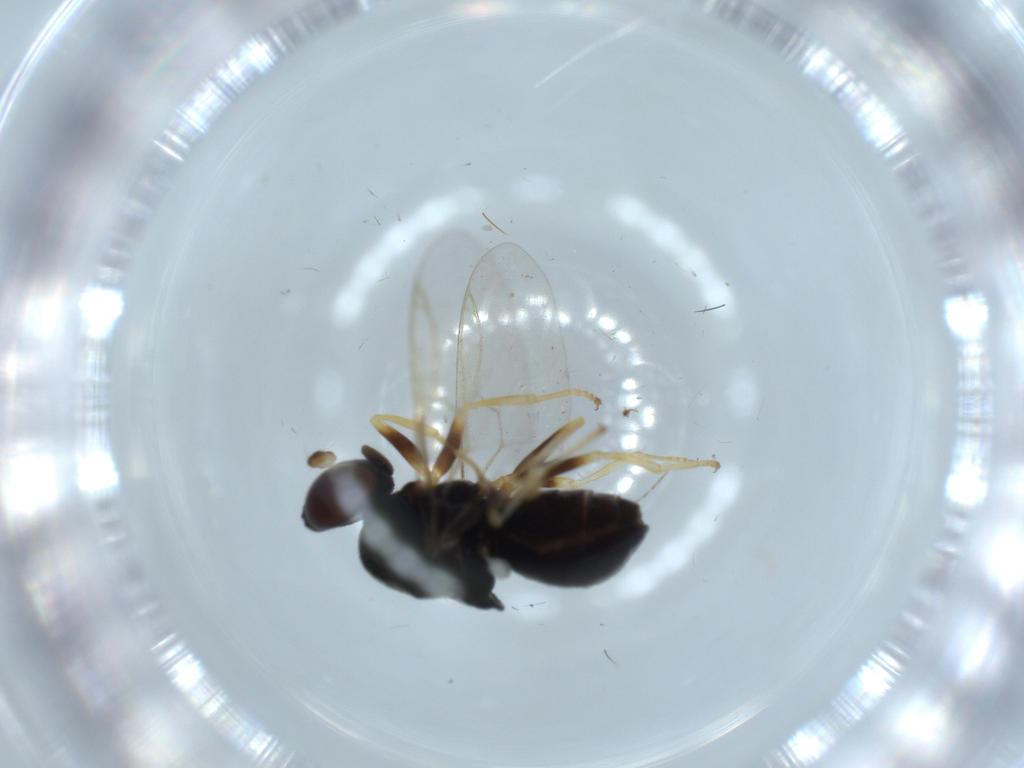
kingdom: Animalia
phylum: Arthropoda
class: Insecta
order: Diptera
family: Stratiomyidae
